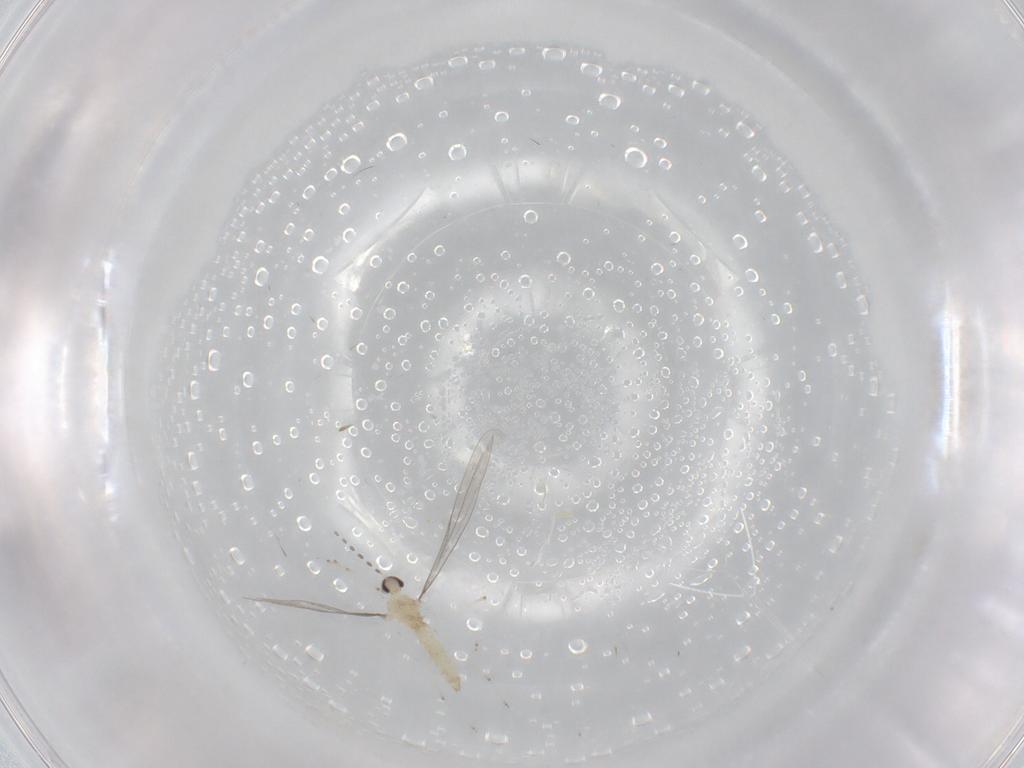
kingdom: Animalia
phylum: Arthropoda
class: Insecta
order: Diptera
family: Cecidomyiidae
